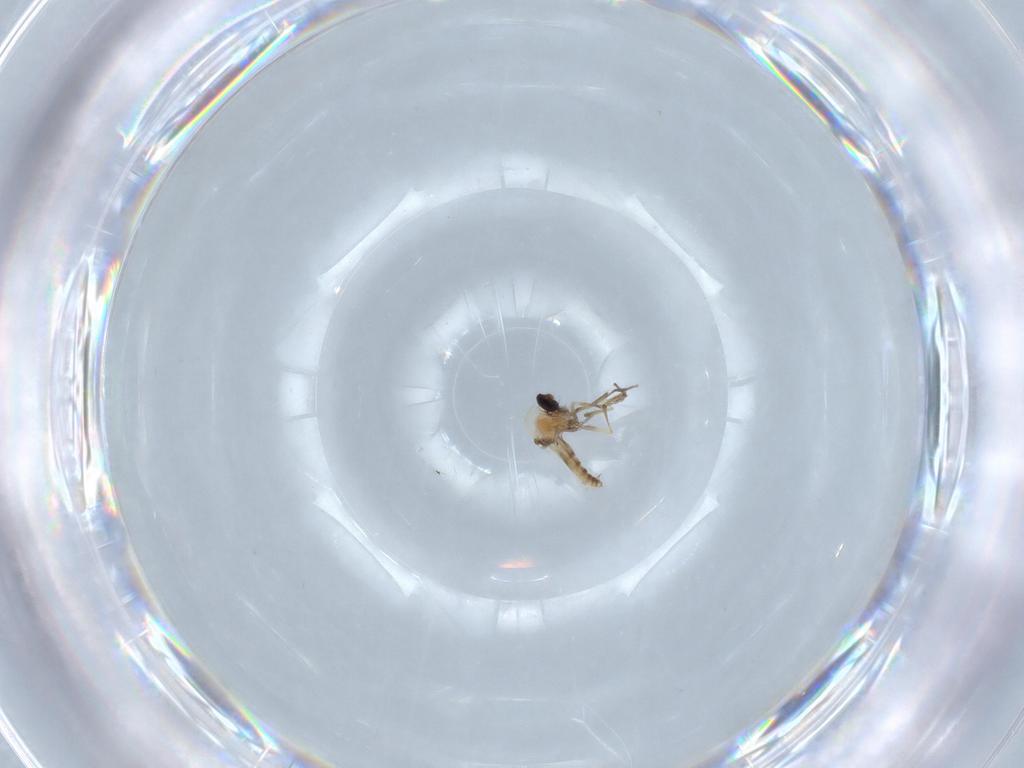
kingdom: Animalia
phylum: Arthropoda
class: Insecta
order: Diptera
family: Ceratopogonidae
